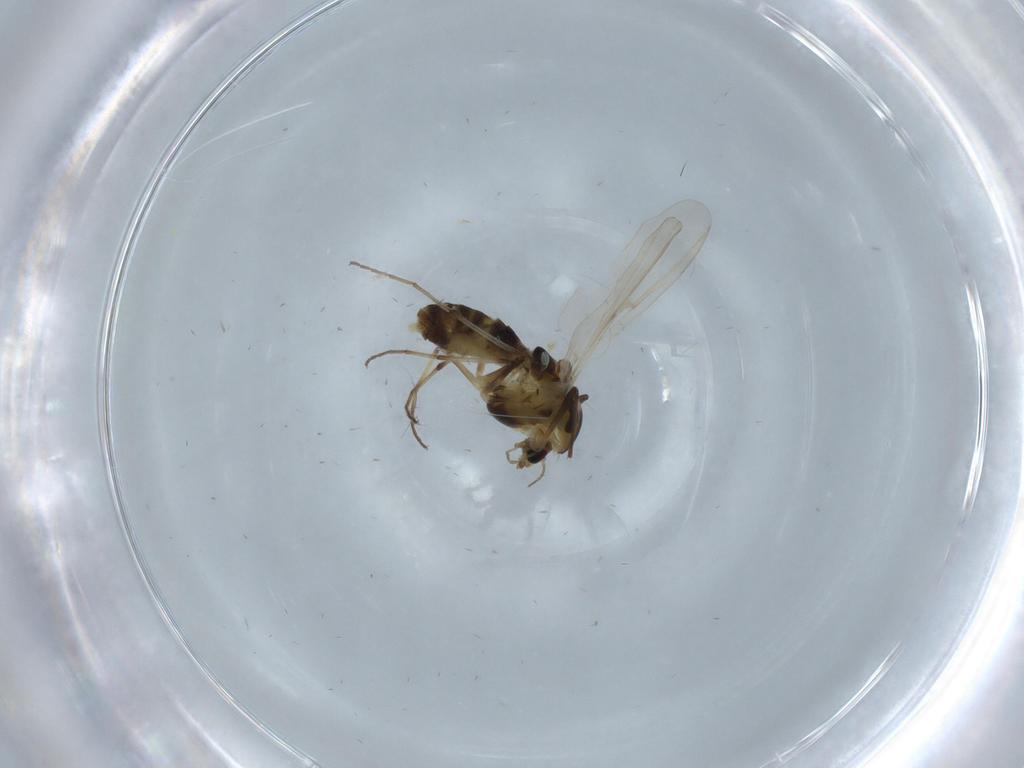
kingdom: Animalia
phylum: Arthropoda
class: Insecta
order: Diptera
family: Chironomidae
